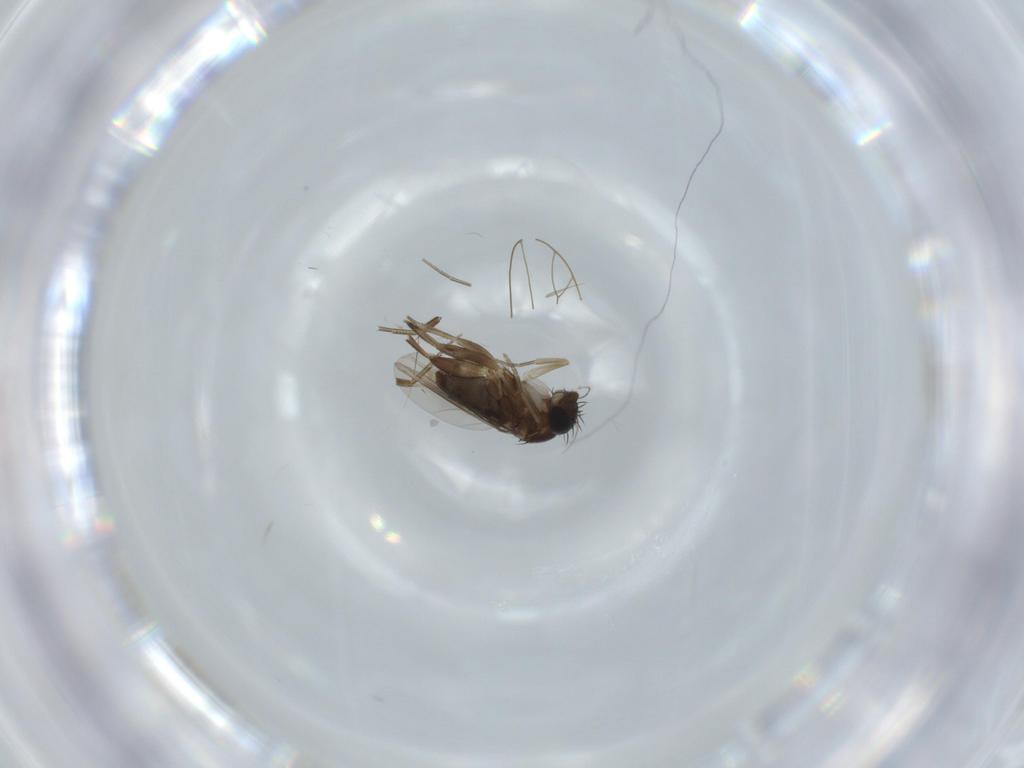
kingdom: Animalia
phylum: Arthropoda
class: Insecta
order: Diptera
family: Phoridae
